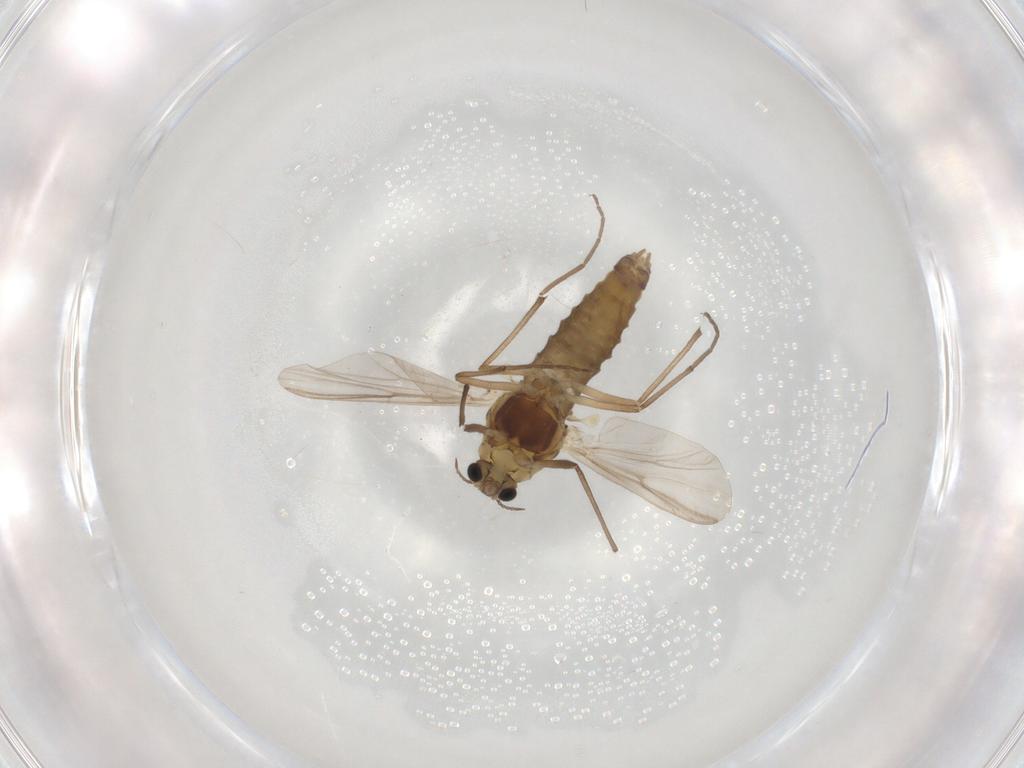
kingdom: Animalia
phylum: Arthropoda
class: Insecta
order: Diptera
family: Chironomidae
